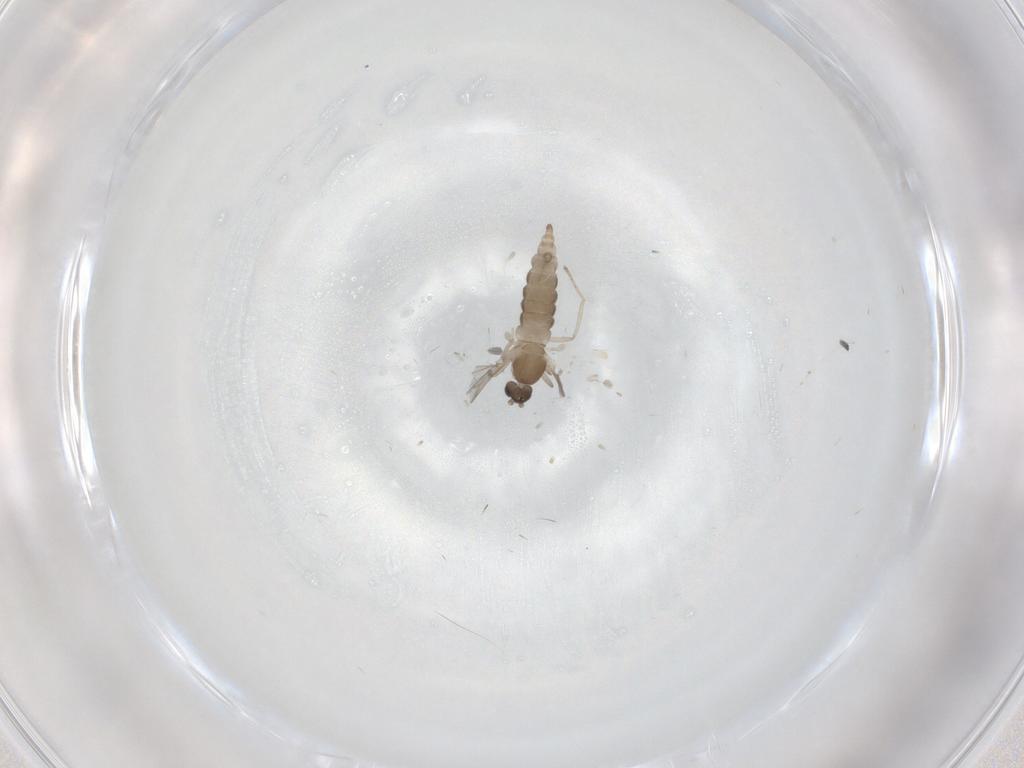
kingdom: Animalia
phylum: Arthropoda
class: Insecta
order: Diptera
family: Cecidomyiidae
